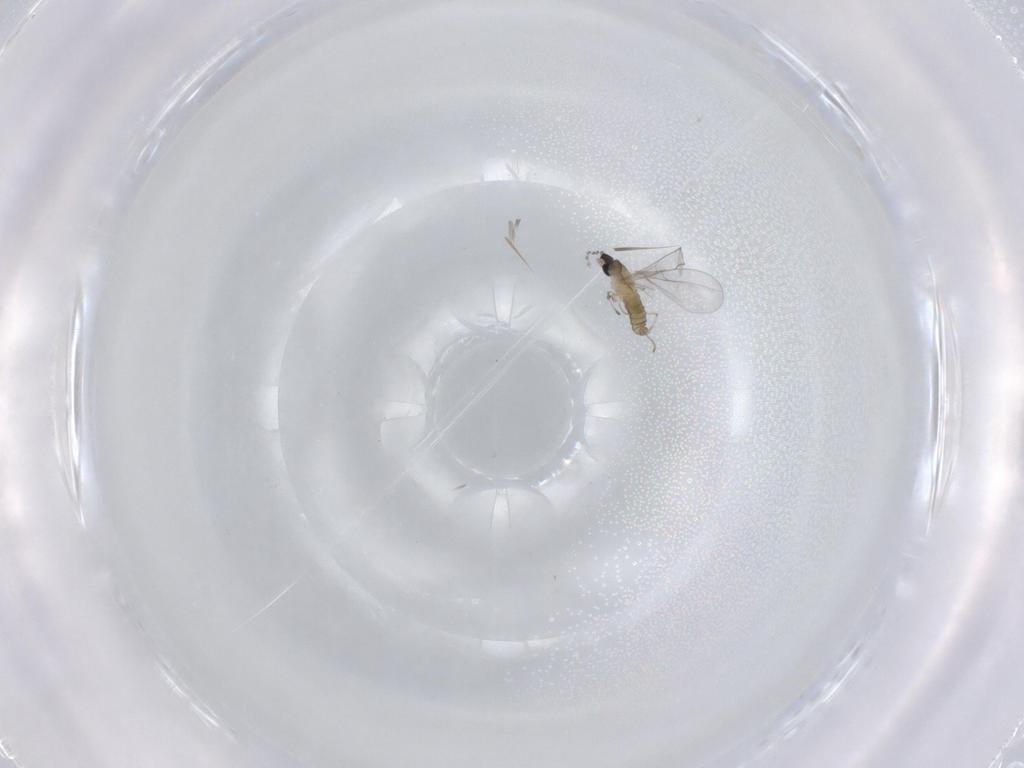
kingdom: Animalia
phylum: Arthropoda
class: Insecta
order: Diptera
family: Cecidomyiidae
